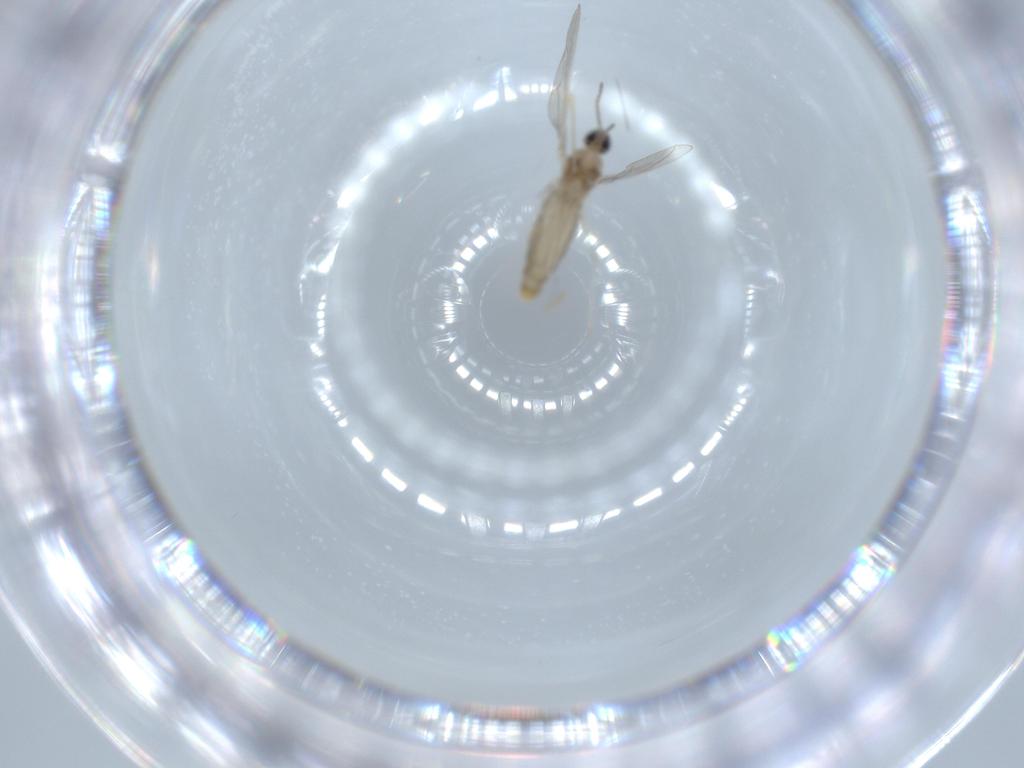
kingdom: Animalia
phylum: Arthropoda
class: Insecta
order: Diptera
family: Cecidomyiidae
